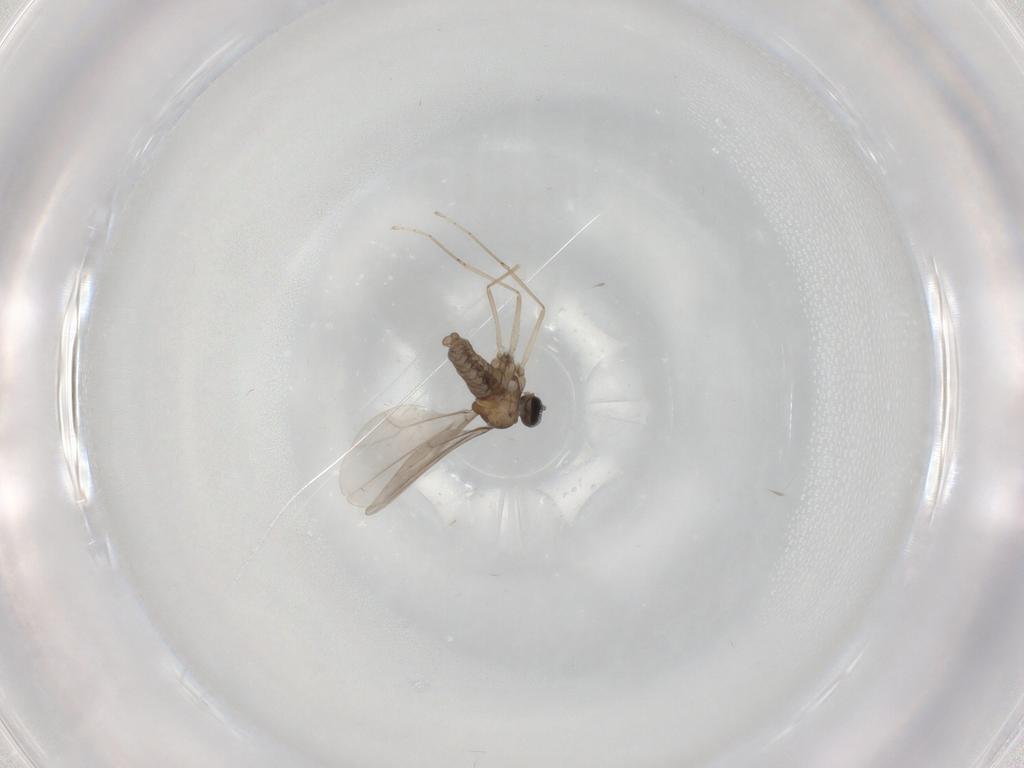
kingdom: Animalia
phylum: Arthropoda
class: Insecta
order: Diptera
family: Cecidomyiidae
